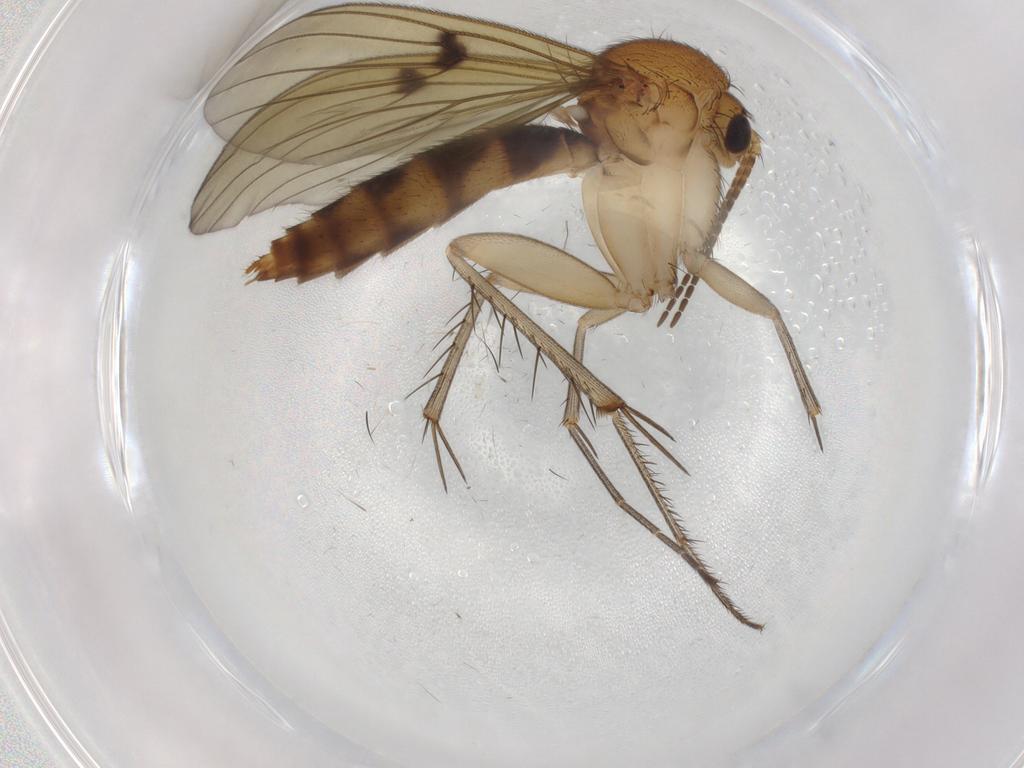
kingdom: Animalia
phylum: Arthropoda
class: Insecta
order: Diptera
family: Mycetophilidae
